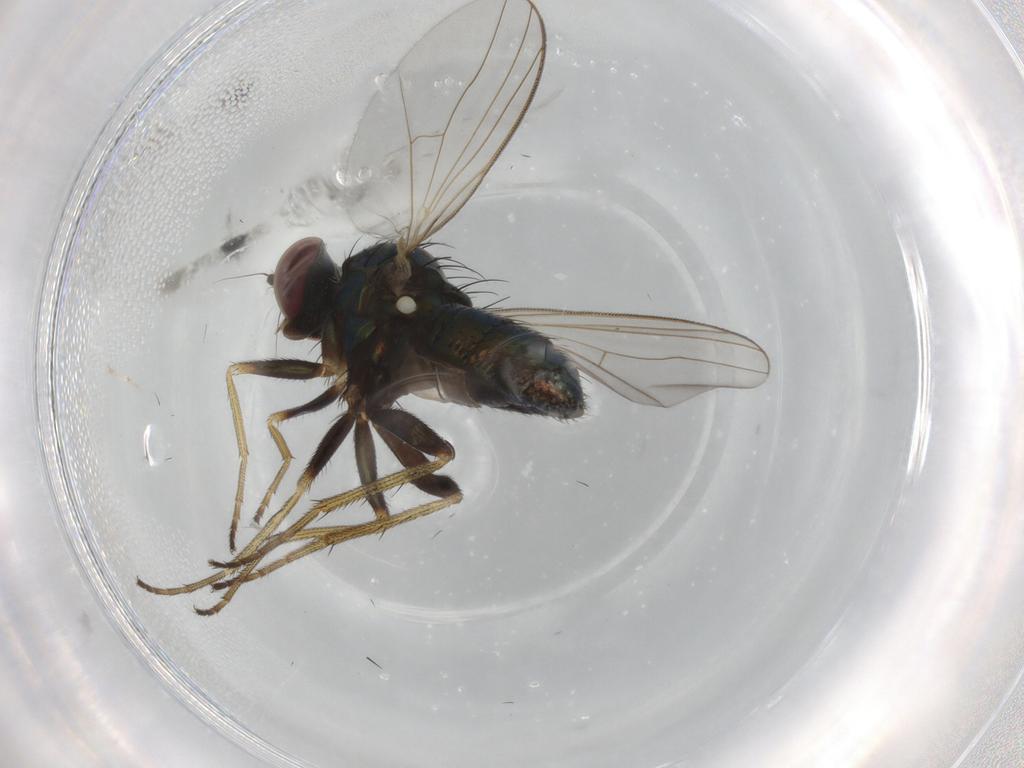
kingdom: Animalia
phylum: Arthropoda
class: Insecta
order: Diptera
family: Dolichopodidae
